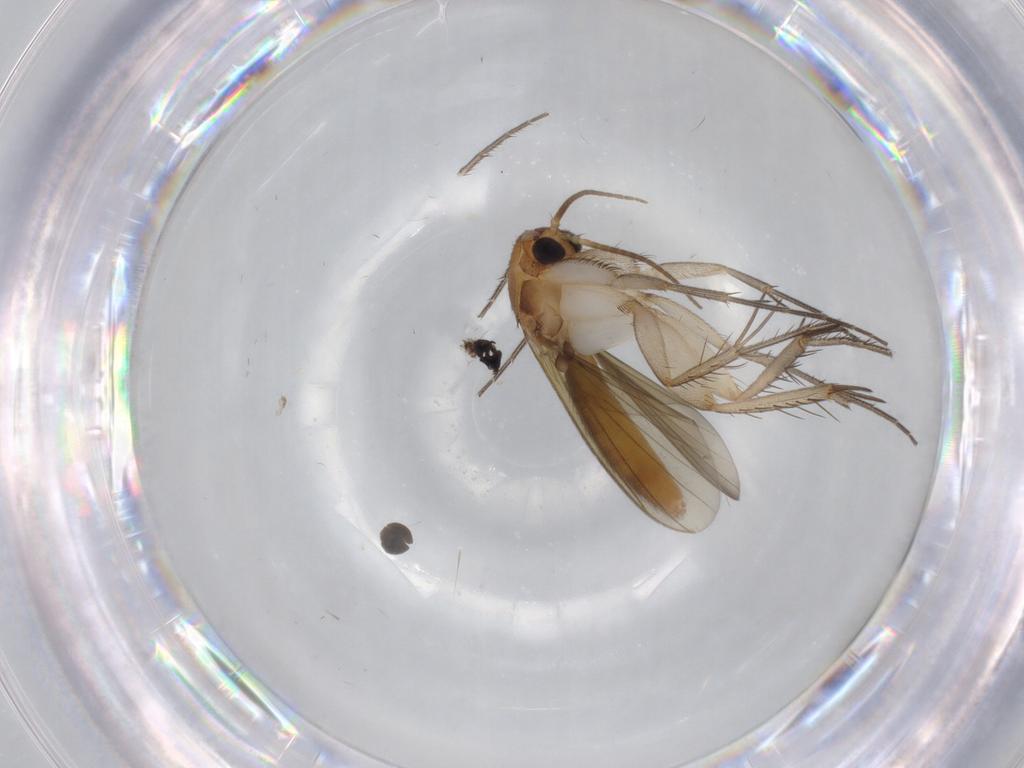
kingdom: Animalia
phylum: Arthropoda
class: Insecta
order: Diptera
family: Mycetophilidae
